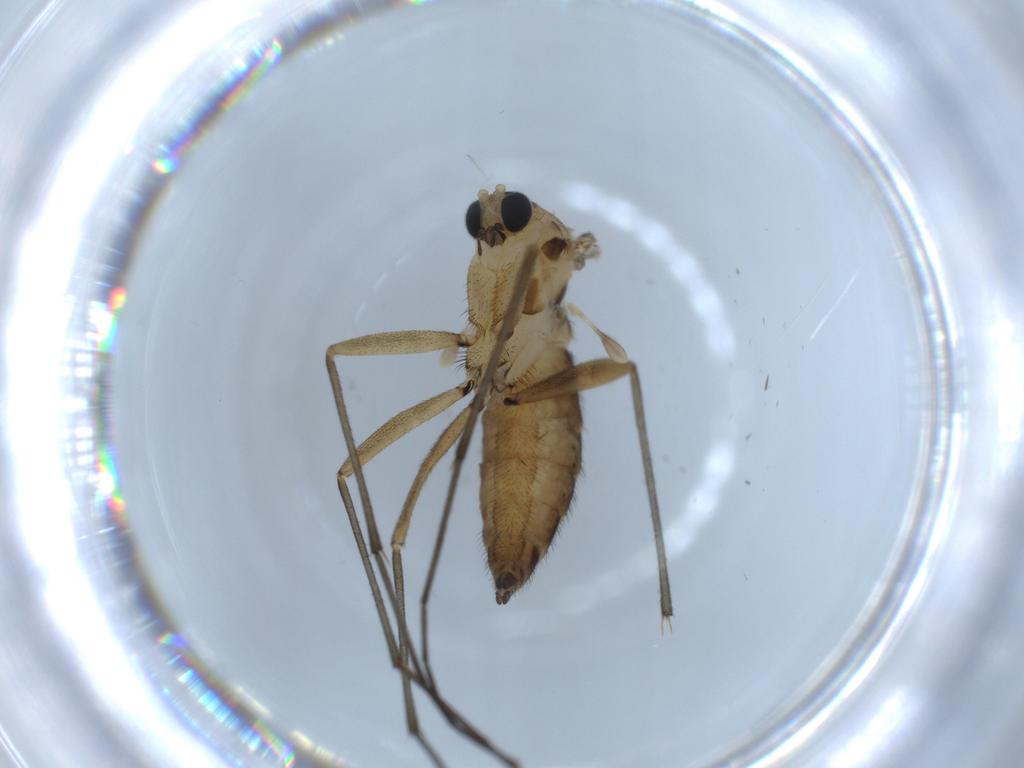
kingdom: Animalia
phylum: Arthropoda
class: Insecta
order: Diptera
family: Sciaridae
